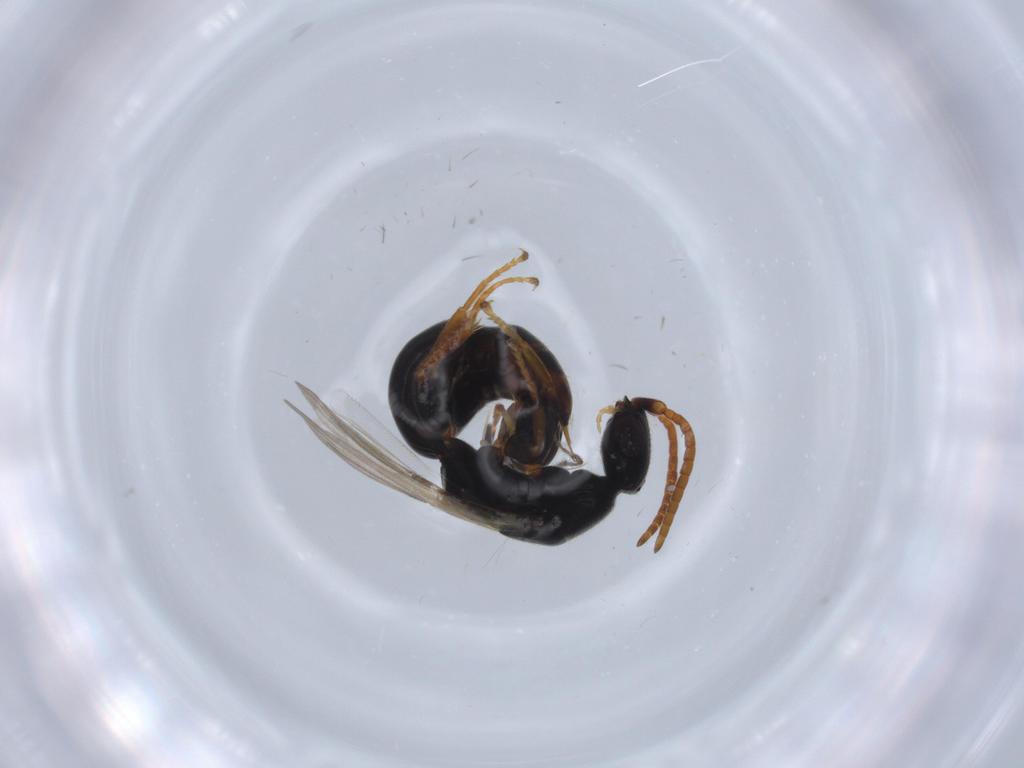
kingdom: Animalia
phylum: Arthropoda
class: Insecta
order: Hymenoptera
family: Bethylidae
